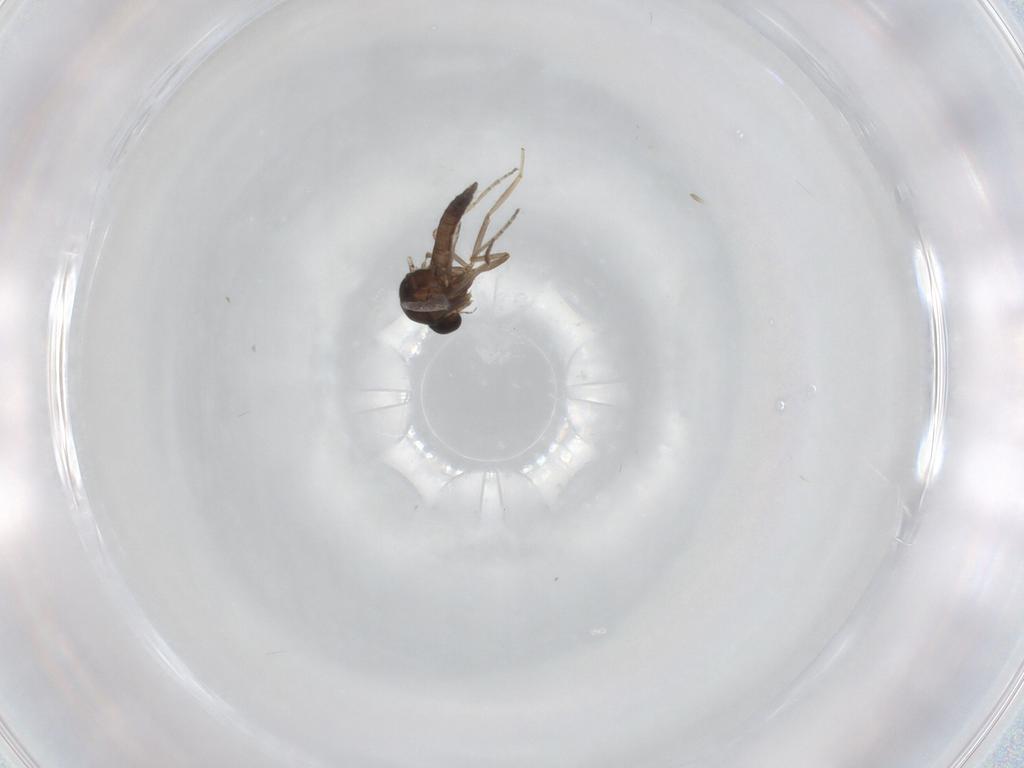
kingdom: Animalia
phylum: Arthropoda
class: Insecta
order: Diptera
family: Ceratopogonidae
